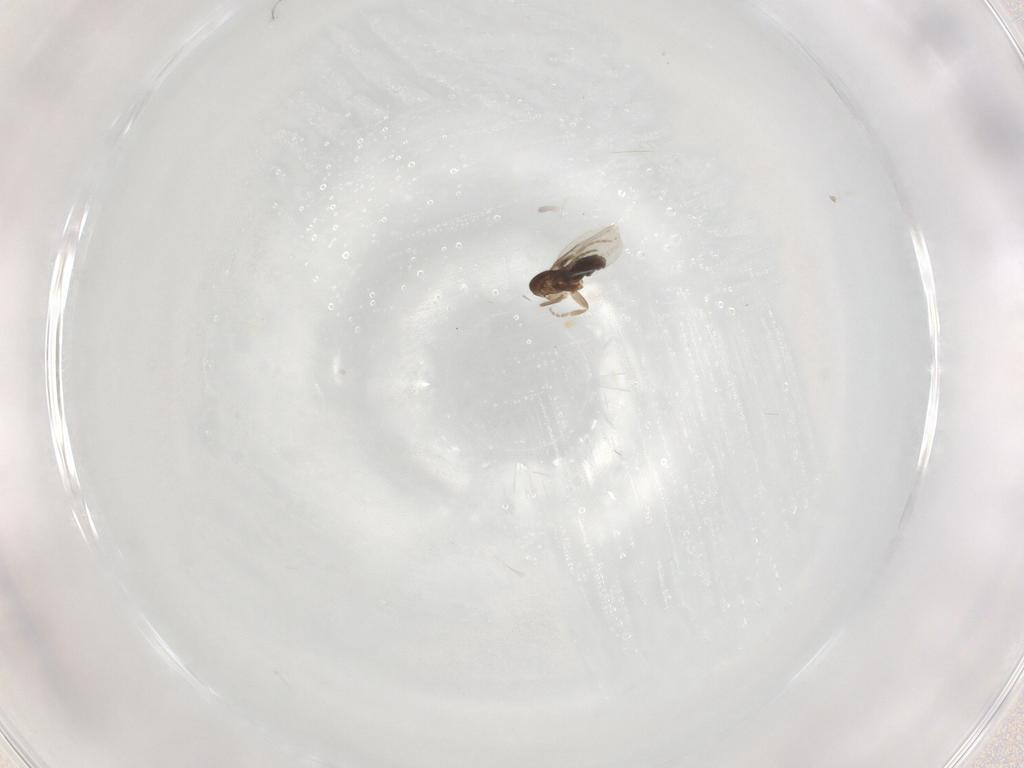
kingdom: Animalia
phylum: Arthropoda
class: Insecta
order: Diptera
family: Phoridae
